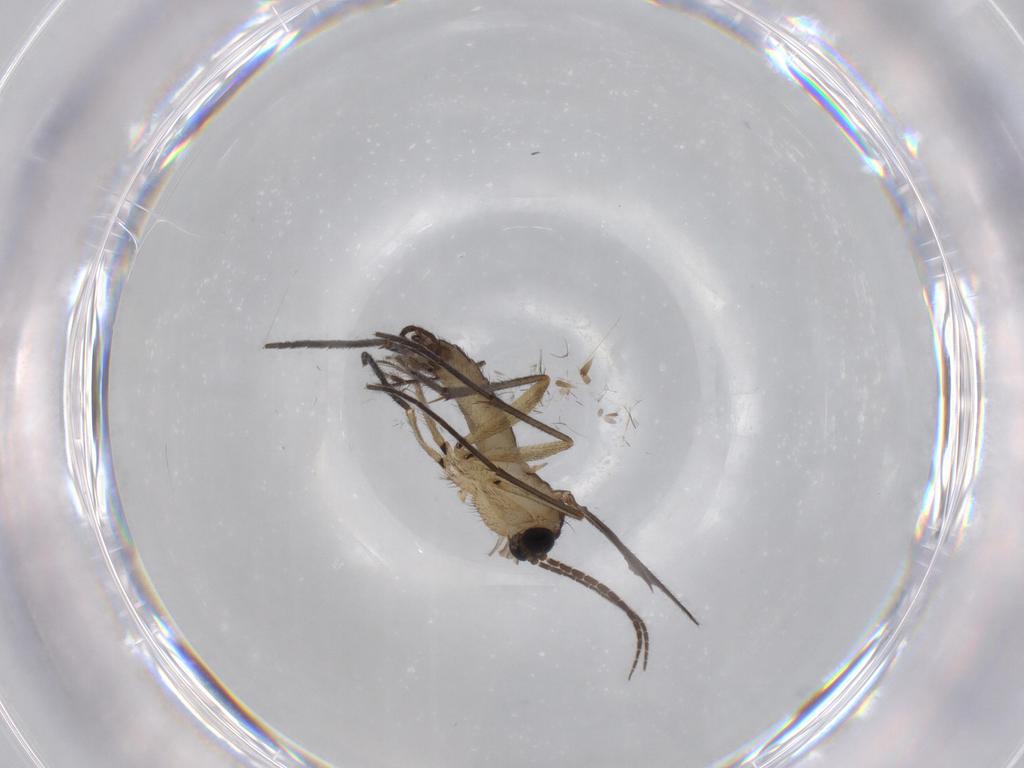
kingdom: Animalia
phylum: Arthropoda
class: Insecta
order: Diptera
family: Sciaridae
